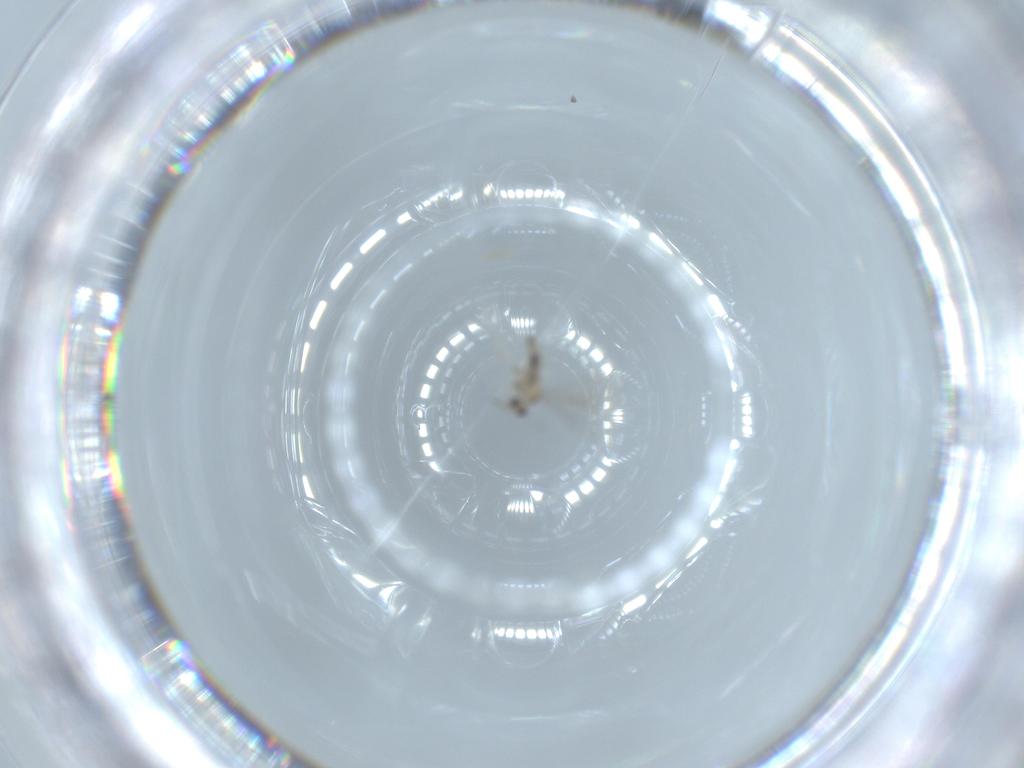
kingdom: Animalia
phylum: Arthropoda
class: Insecta
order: Diptera
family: Cecidomyiidae
